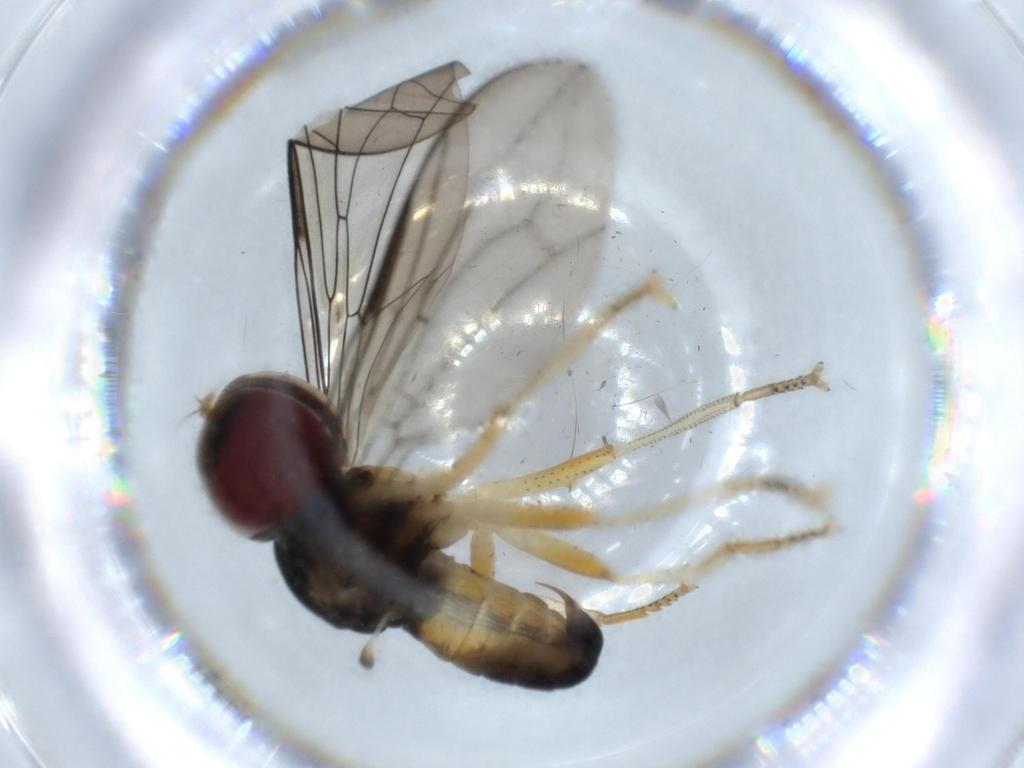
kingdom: Animalia
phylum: Arthropoda
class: Insecta
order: Diptera
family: Pipunculidae
